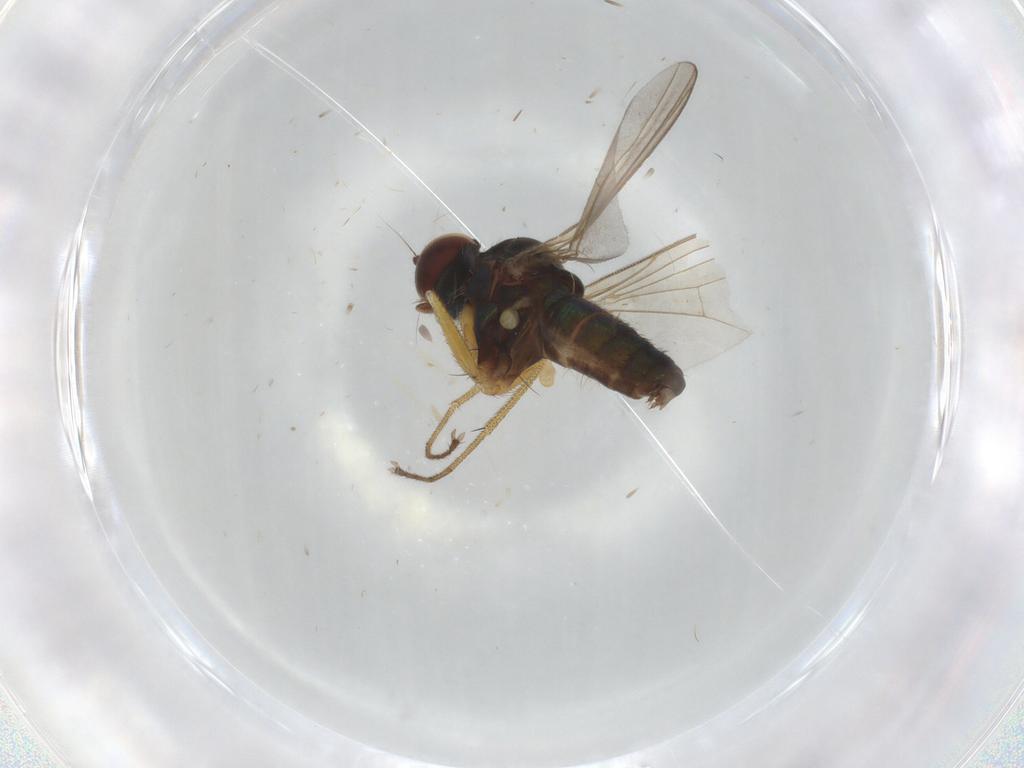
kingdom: Animalia
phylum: Arthropoda
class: Insecta
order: Diptera
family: Dolichopodidae
